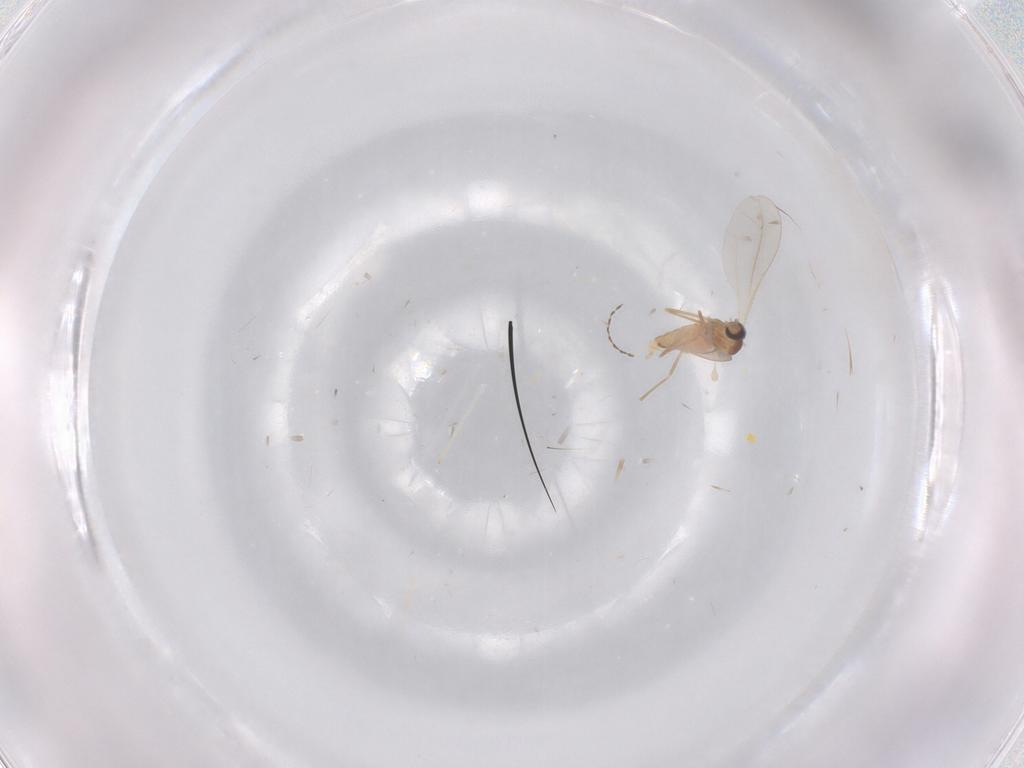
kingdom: Animalia
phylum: Arthropoda
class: Insecta
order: Diptera
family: Cecidomyiidae
